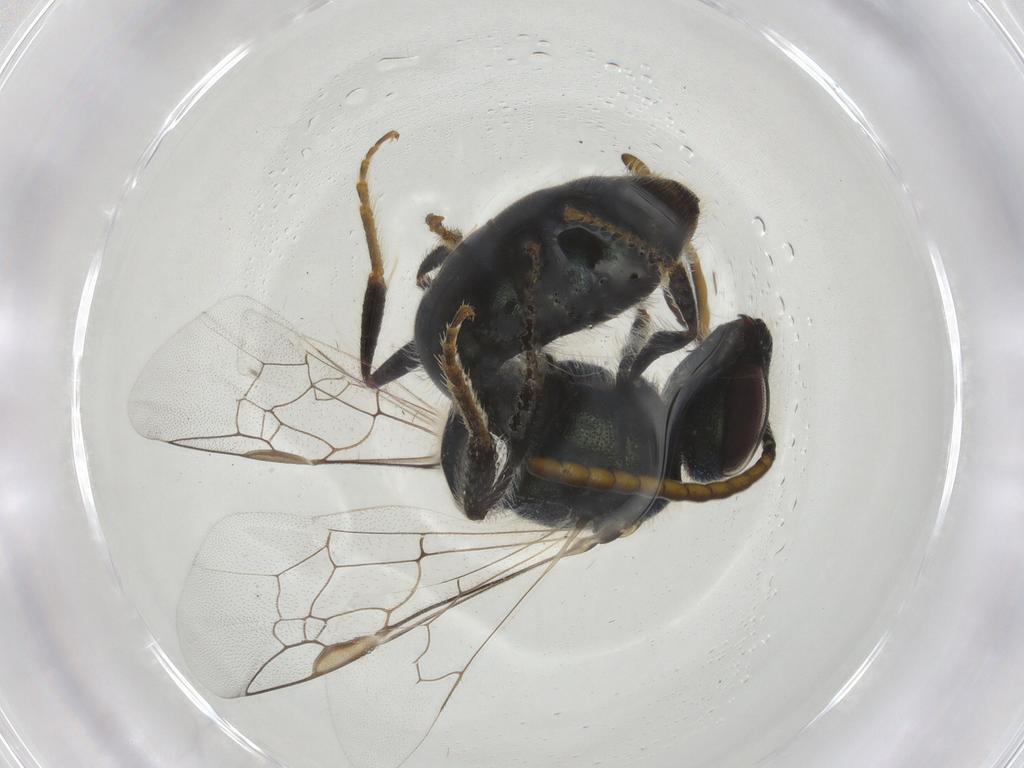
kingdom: Animalia
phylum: Arthropoda
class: Insecta
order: Hymenoptera
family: Halictidae
